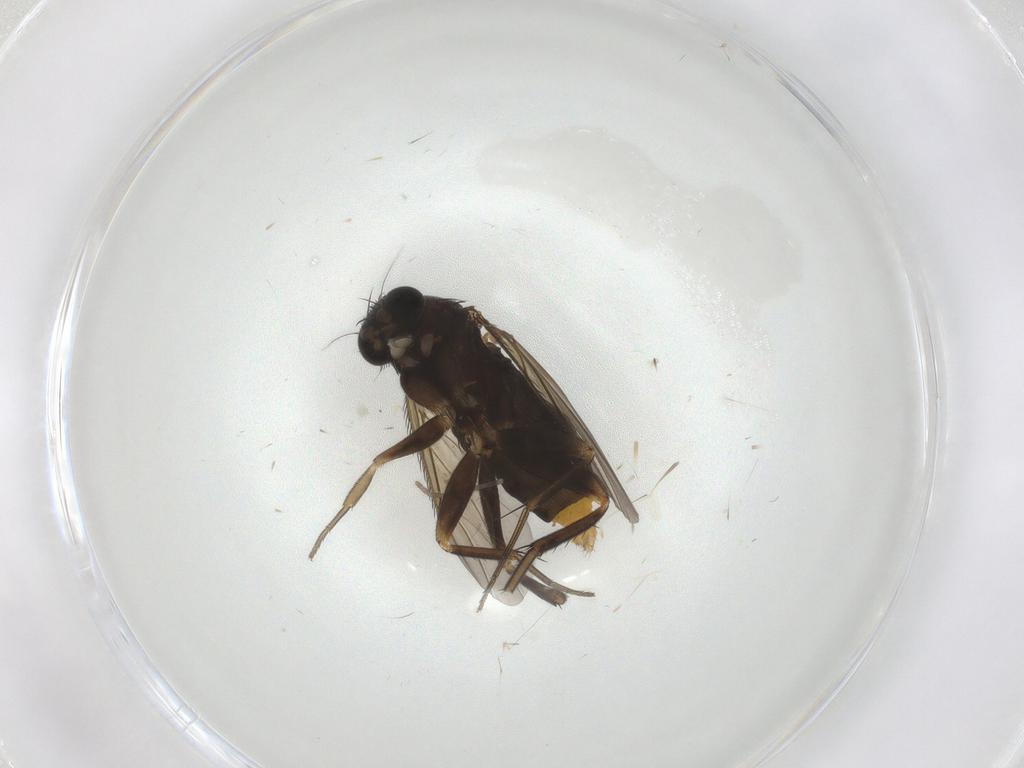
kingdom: Animalia
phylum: Arthropoda
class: Insecta
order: Diptera
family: Phoridae
